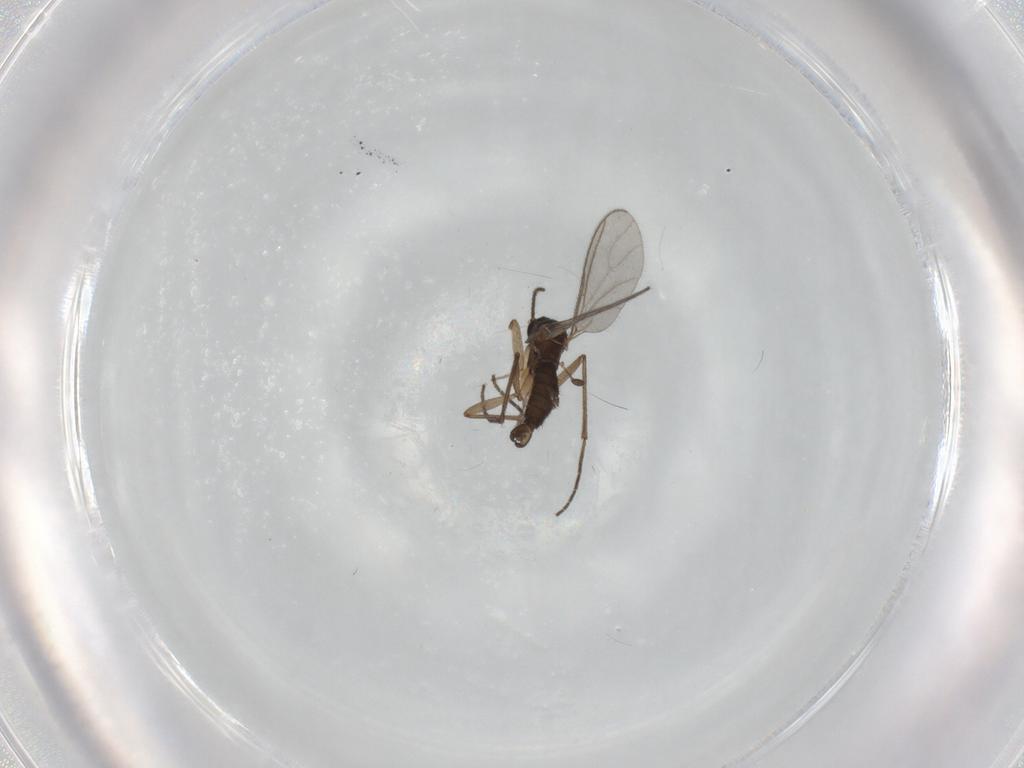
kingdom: Animalia
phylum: Arthropoda
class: Insecta
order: Diptera
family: Sciaridae
